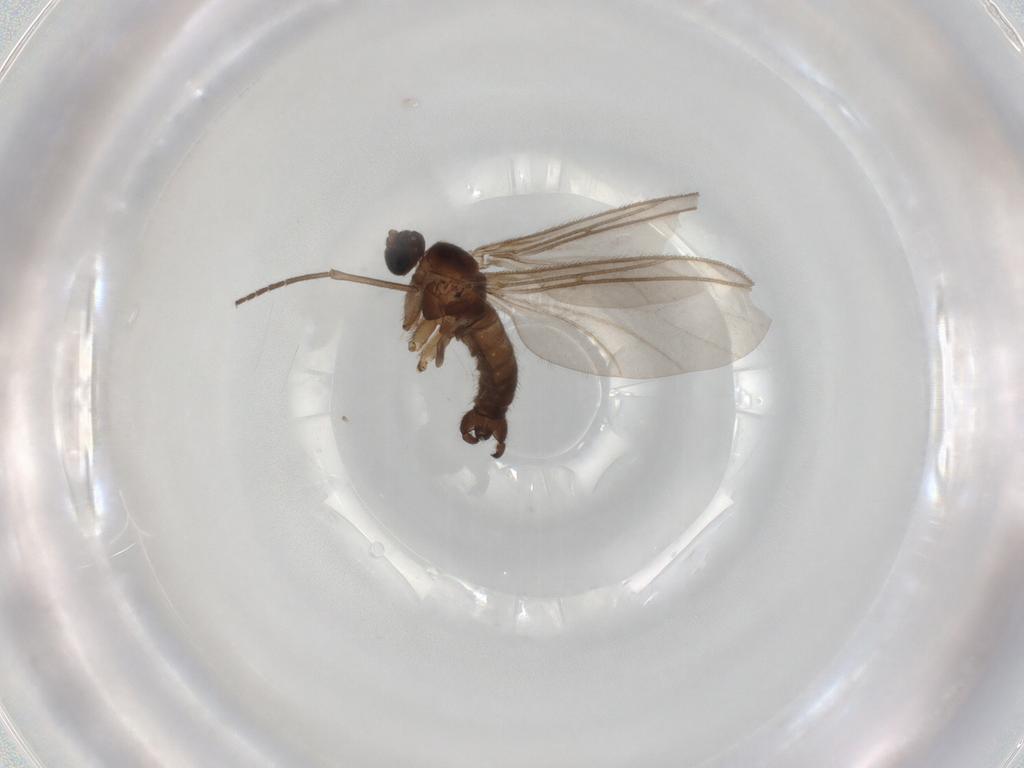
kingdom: Animalia
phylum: Arthropoda
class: Insecta
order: Diptera
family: Sciaridae
